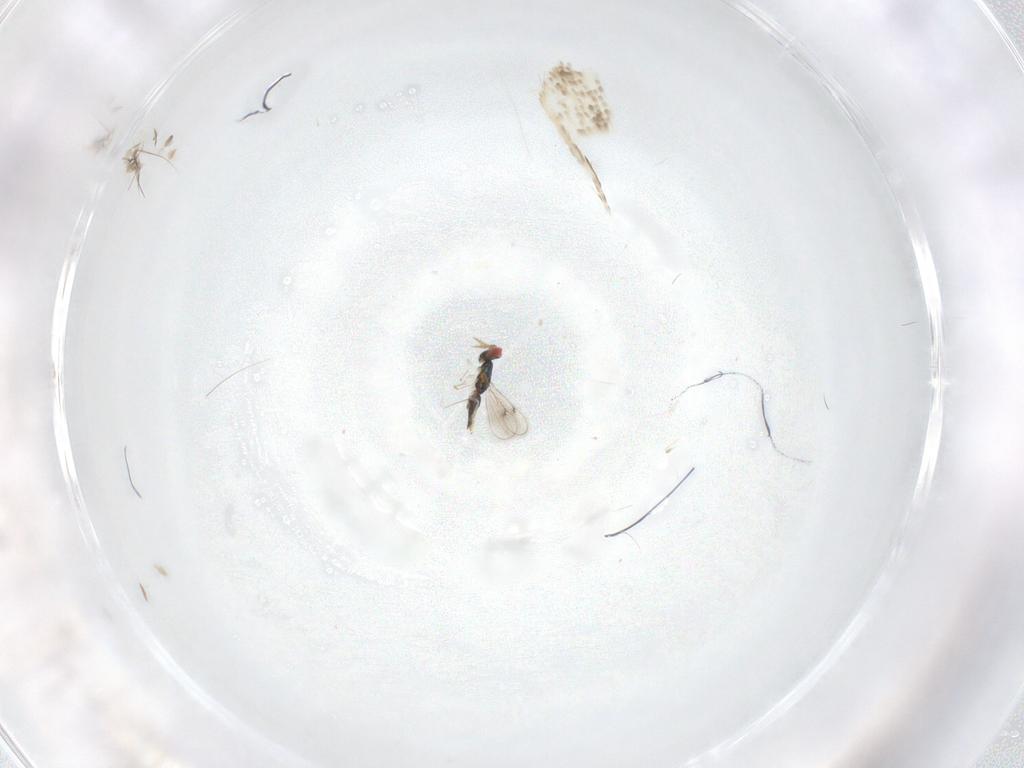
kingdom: Animalia
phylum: Arthropoda
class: Insecta
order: Hymenoptera
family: Eulophidae
